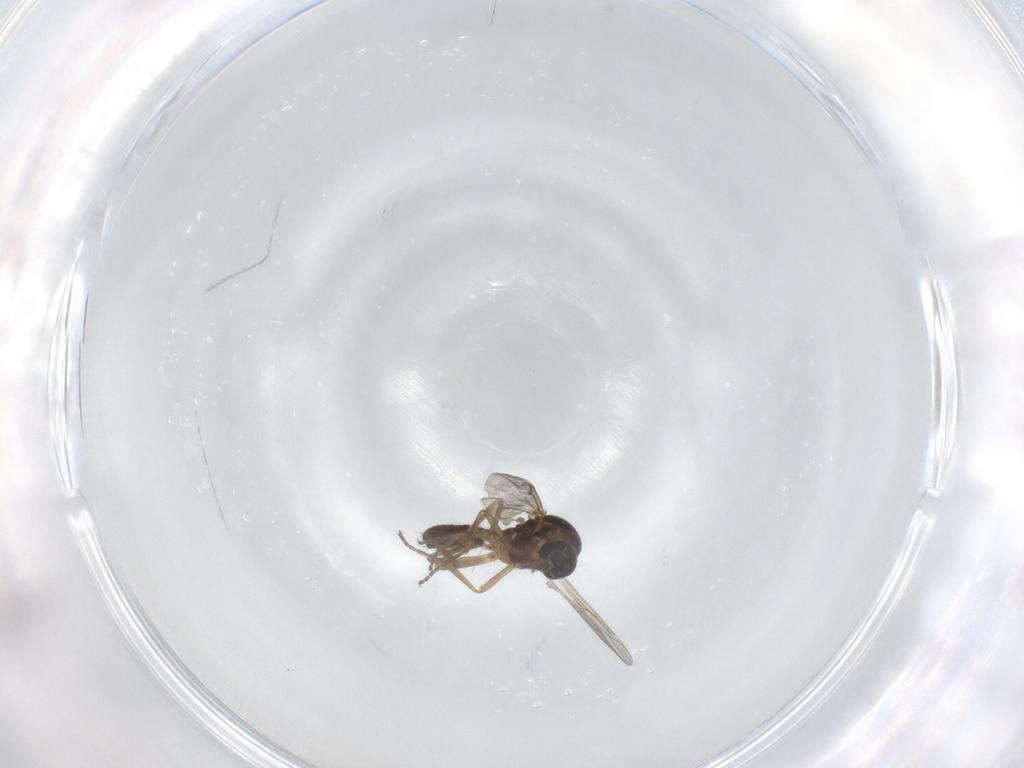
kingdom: Animalia
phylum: Arthropoda
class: Insecta
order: Diptera
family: Ceratopogonidae
